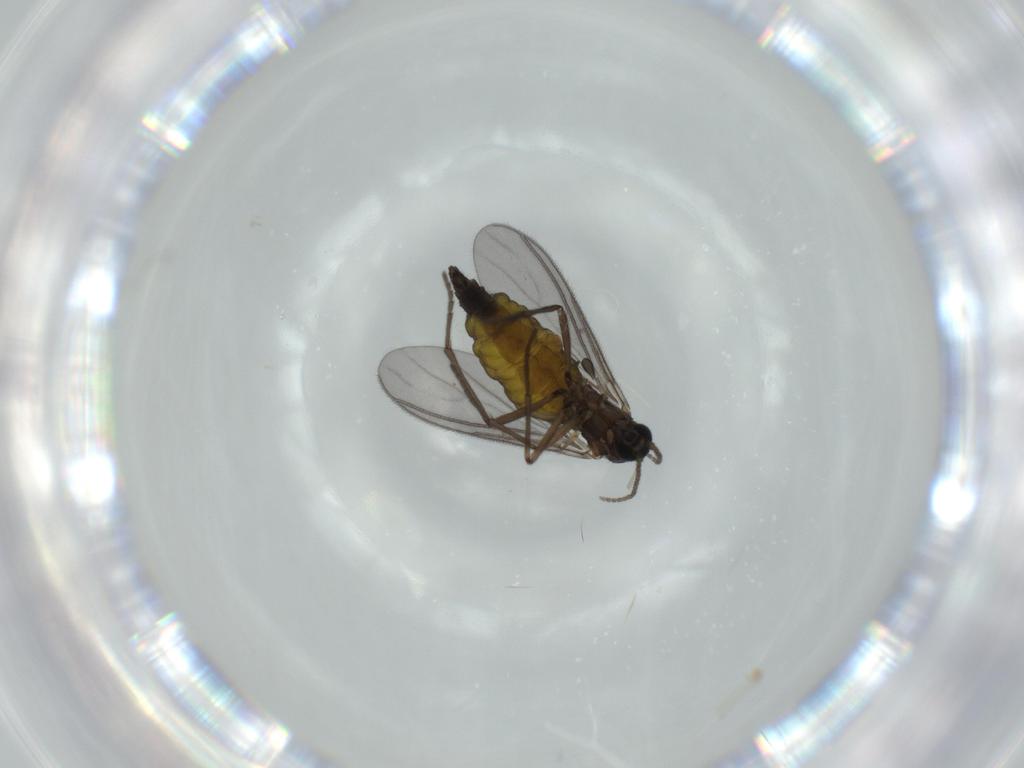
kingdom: Animalia
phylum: Arthropoda
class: Insecta
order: Diptera
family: Sciaridae
